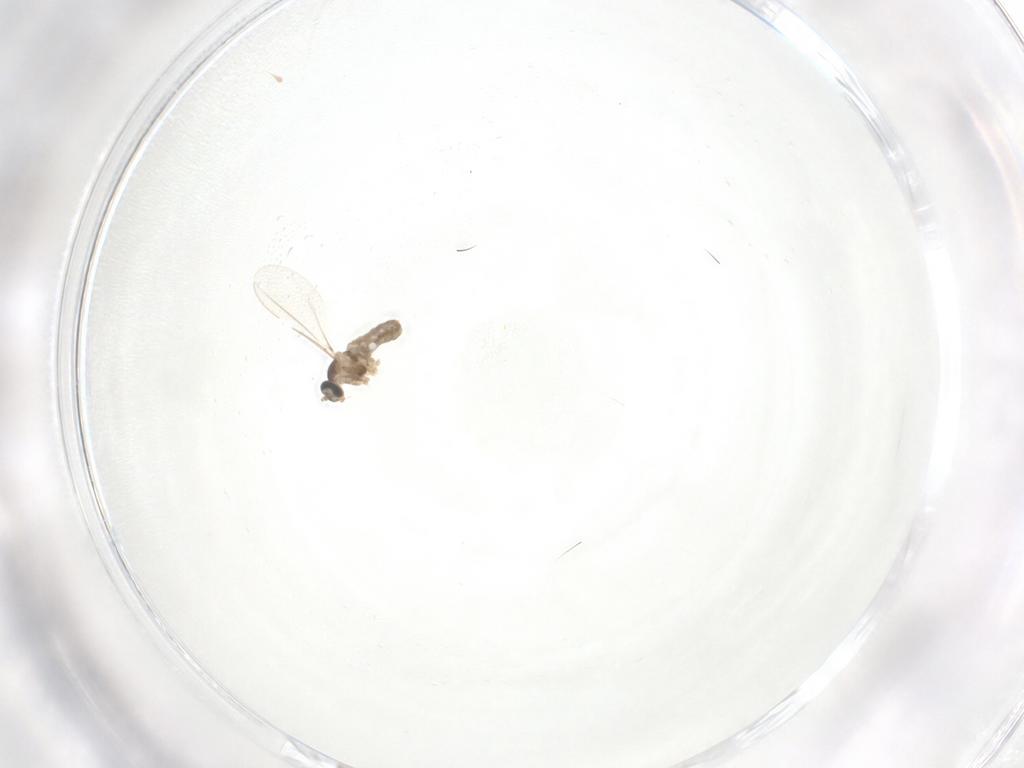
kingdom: Animalia
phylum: Arthropoda
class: Insecta
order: Diptera
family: Cecidomyiidae
